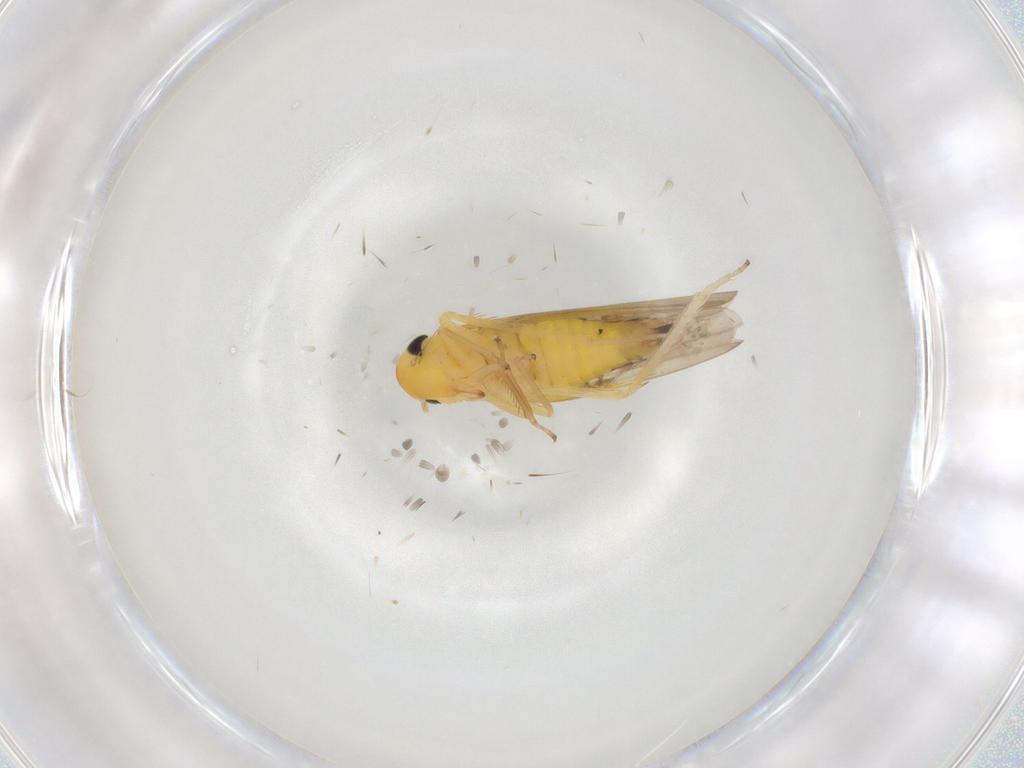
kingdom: Animalia
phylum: Arthropoda
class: Insecta
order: Hemiptera
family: Cicadellidae
